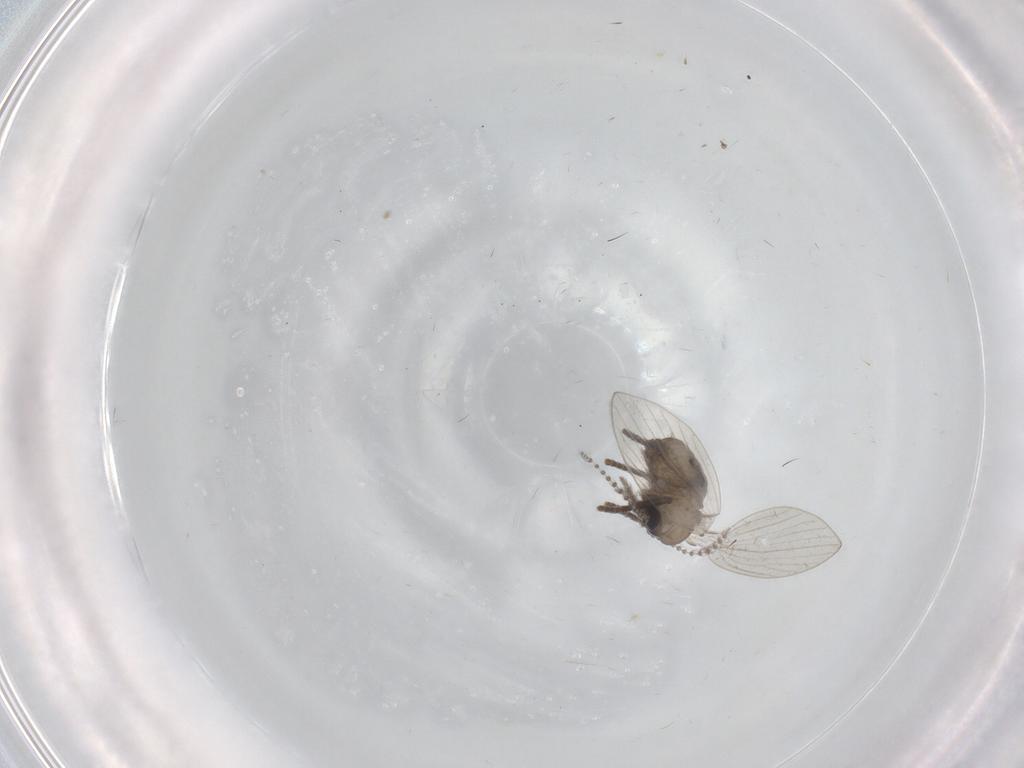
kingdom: Animalia
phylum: Arthropoda
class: Insecta
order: Diptera
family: Psychodidae
